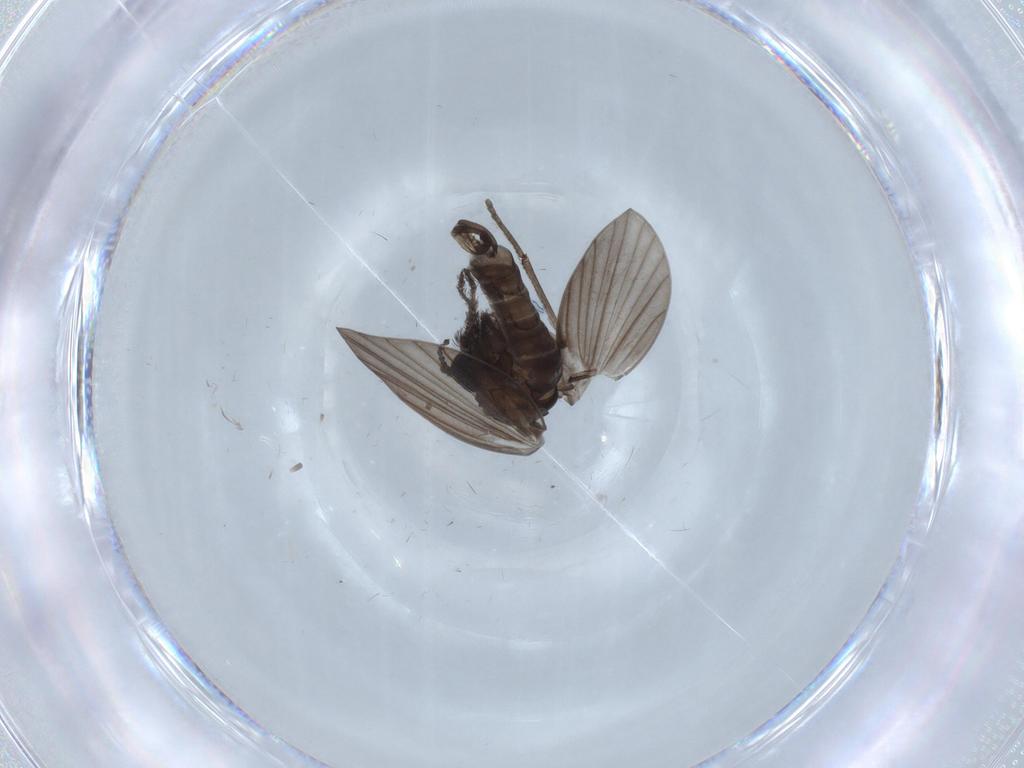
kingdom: Animalia
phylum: Arthropoda
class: Insecta
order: Diptera
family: Psychodidae
